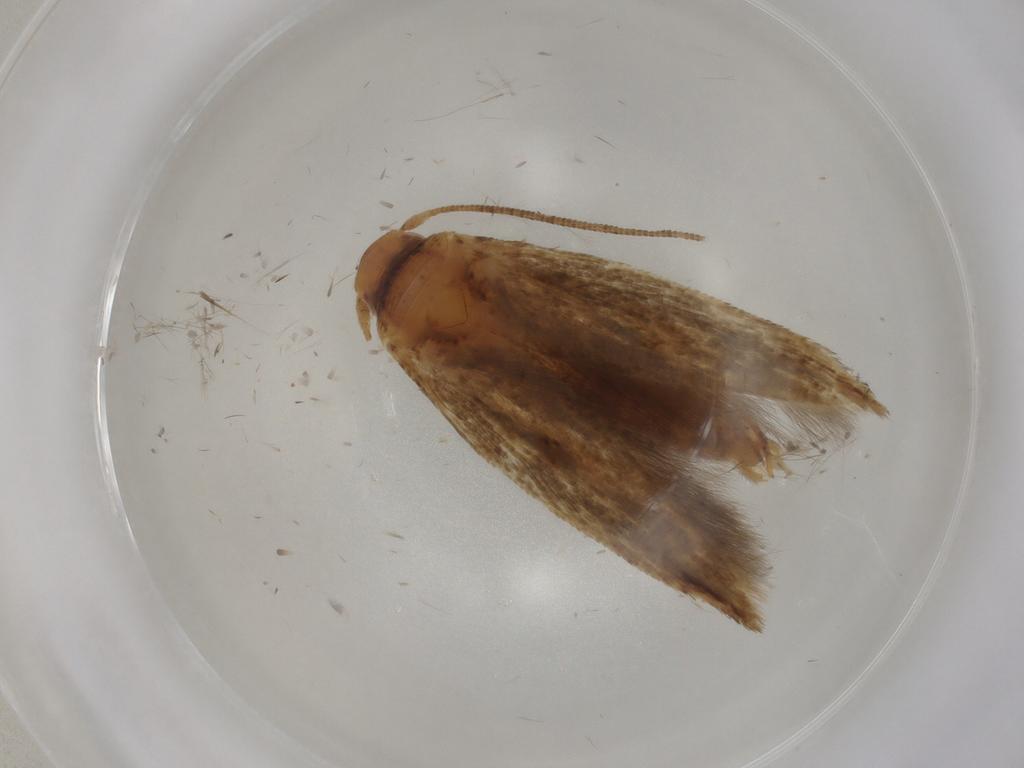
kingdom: Animalia
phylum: Arthropoda
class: Insecta
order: Lepidoptera
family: Momphidae
